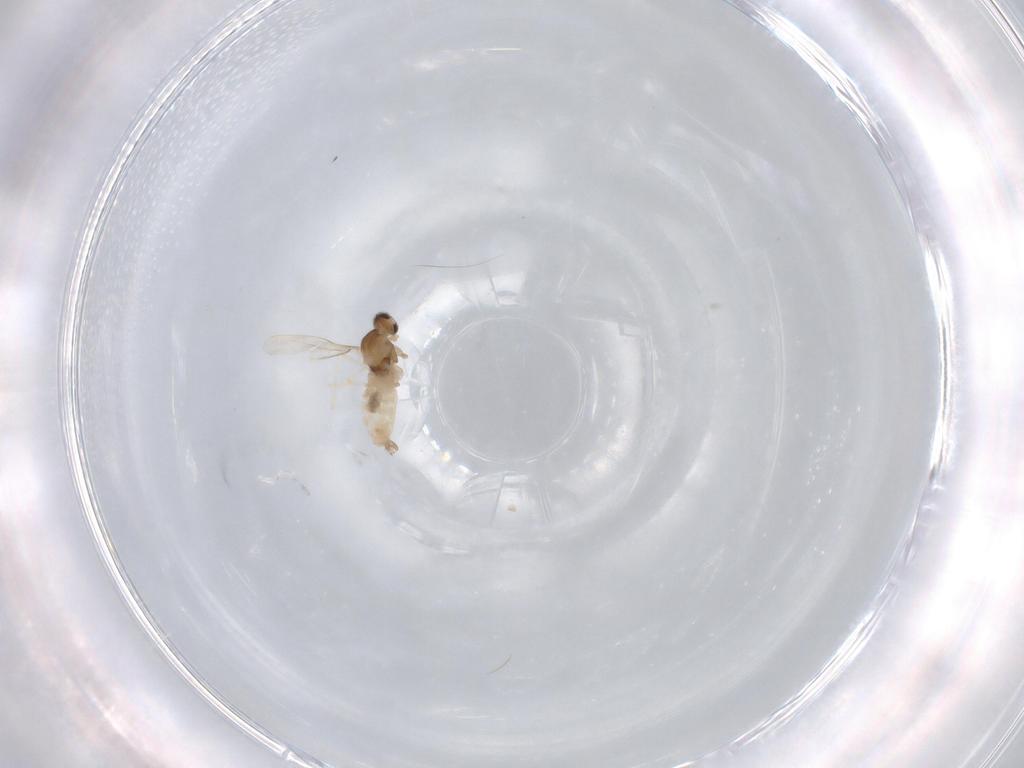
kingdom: Animalia
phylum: Arthropoda
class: Insecta
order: Diptera
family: Cecidomyiidae
